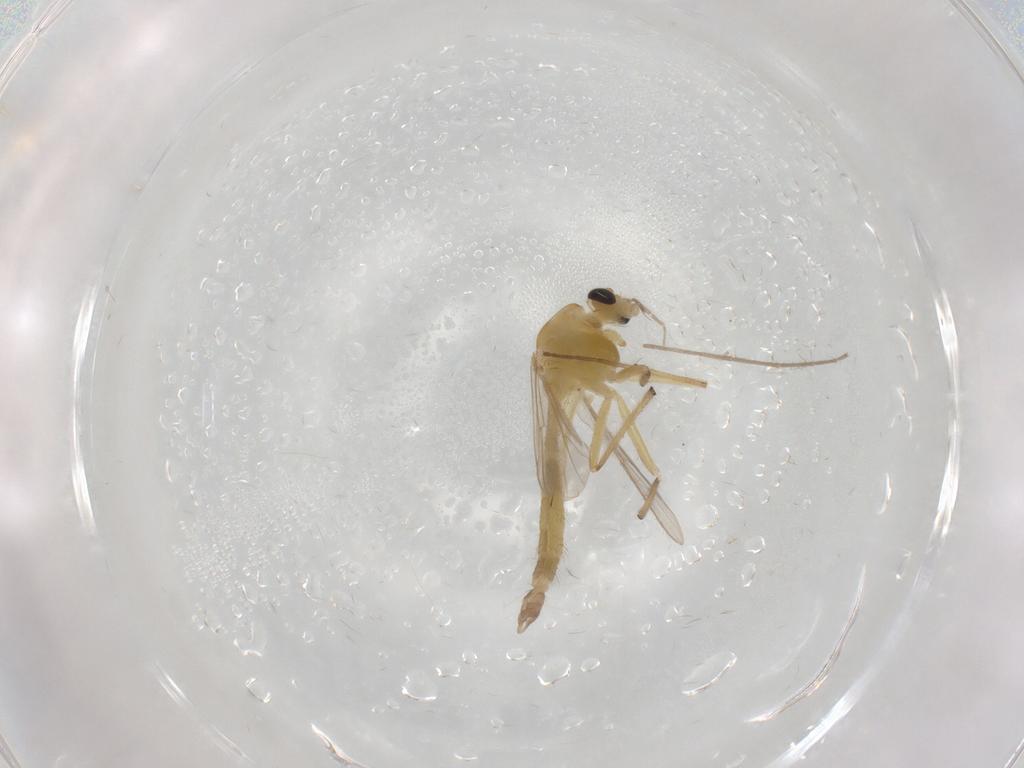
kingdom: Animalia
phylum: Arthropoda
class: Insecta
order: Diptera
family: Chironomidae
